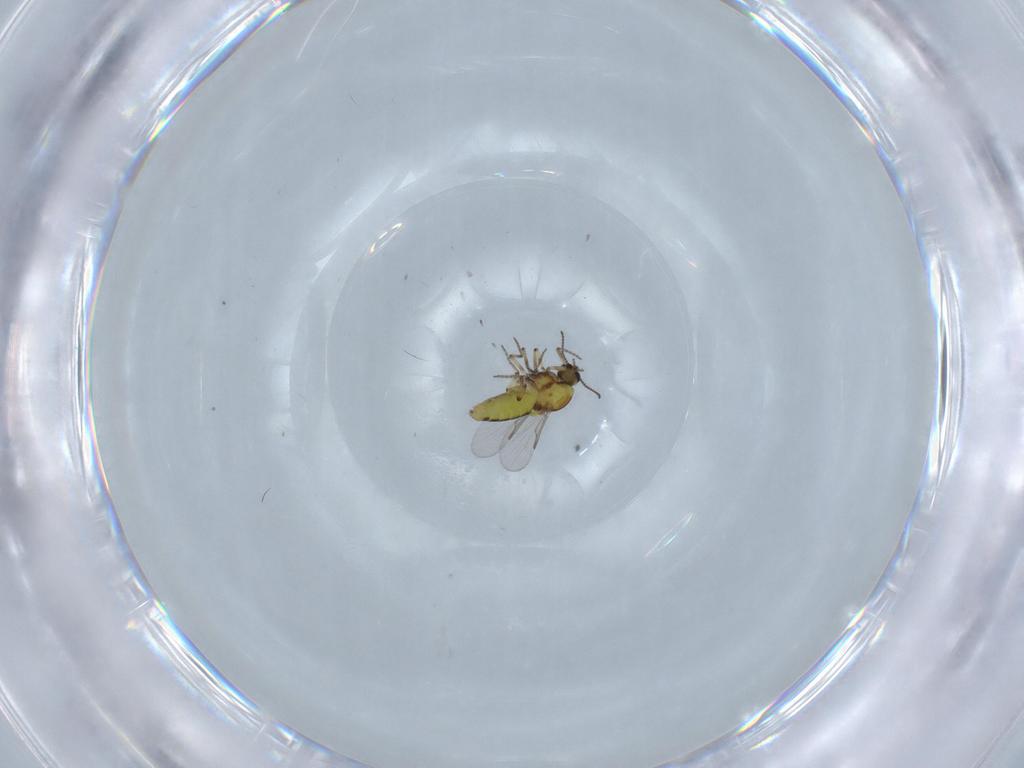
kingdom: Animalia
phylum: Arthropoda
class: Insecta
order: Diptera
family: Ceratopogonidae
